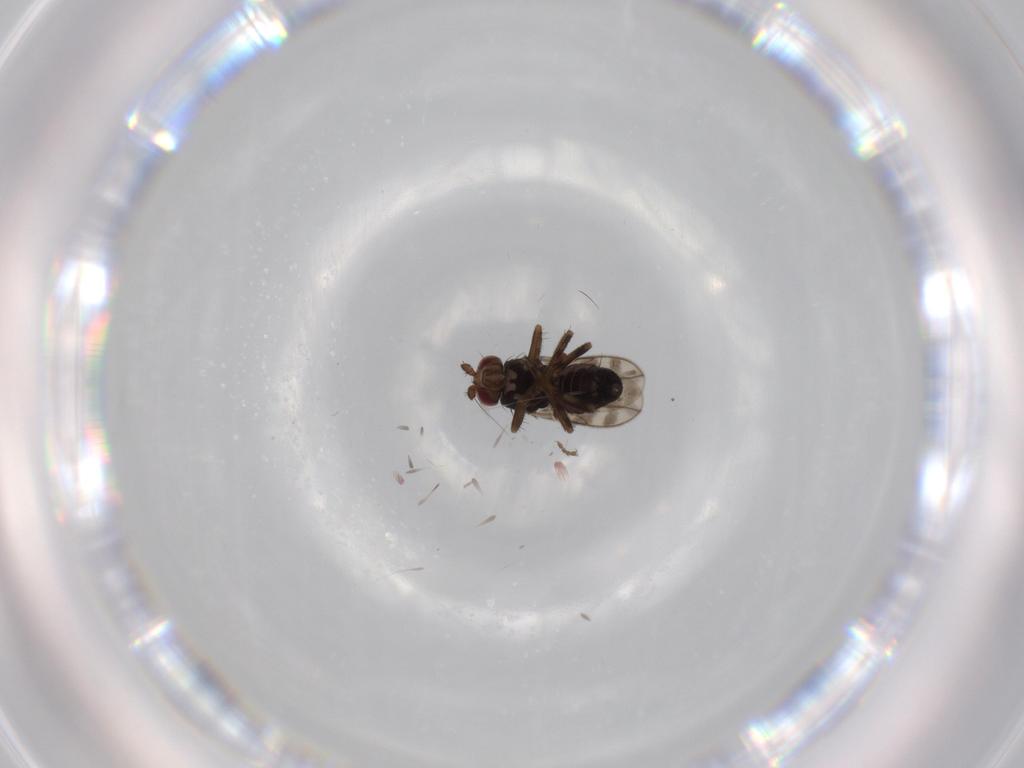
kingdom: Animalia
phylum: Arthropoda
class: Insecta
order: Diptera
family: Sphaeroceridae
